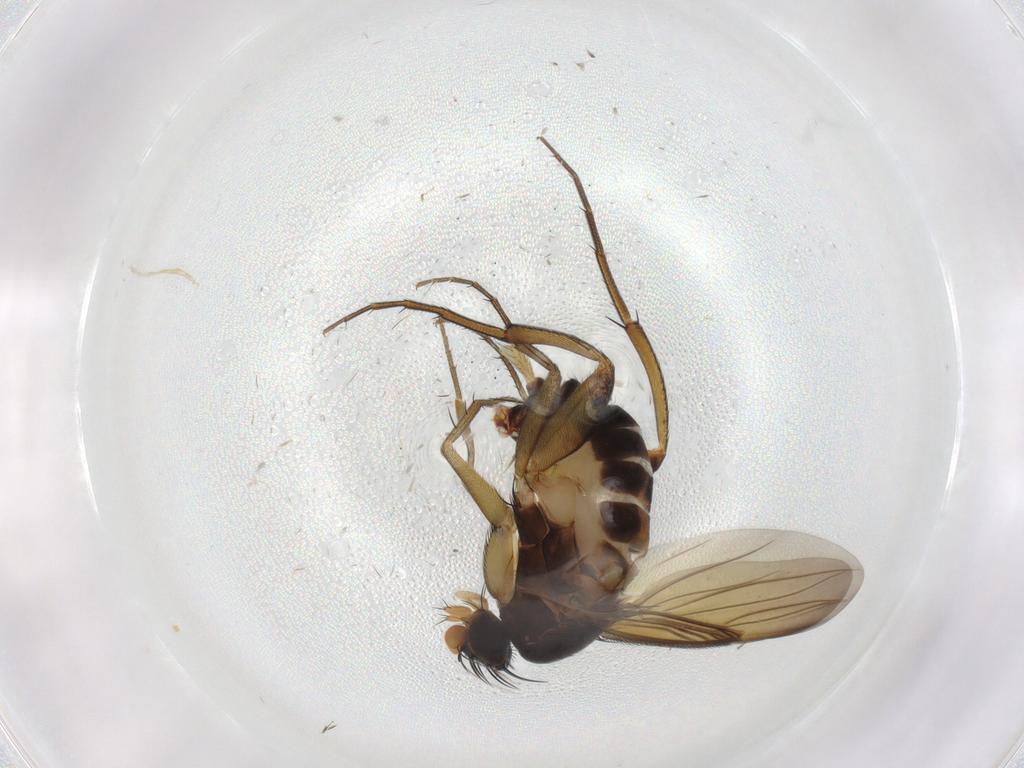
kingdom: Animalia
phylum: Arthropoda
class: Insecta
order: Diptera
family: Phoridae
